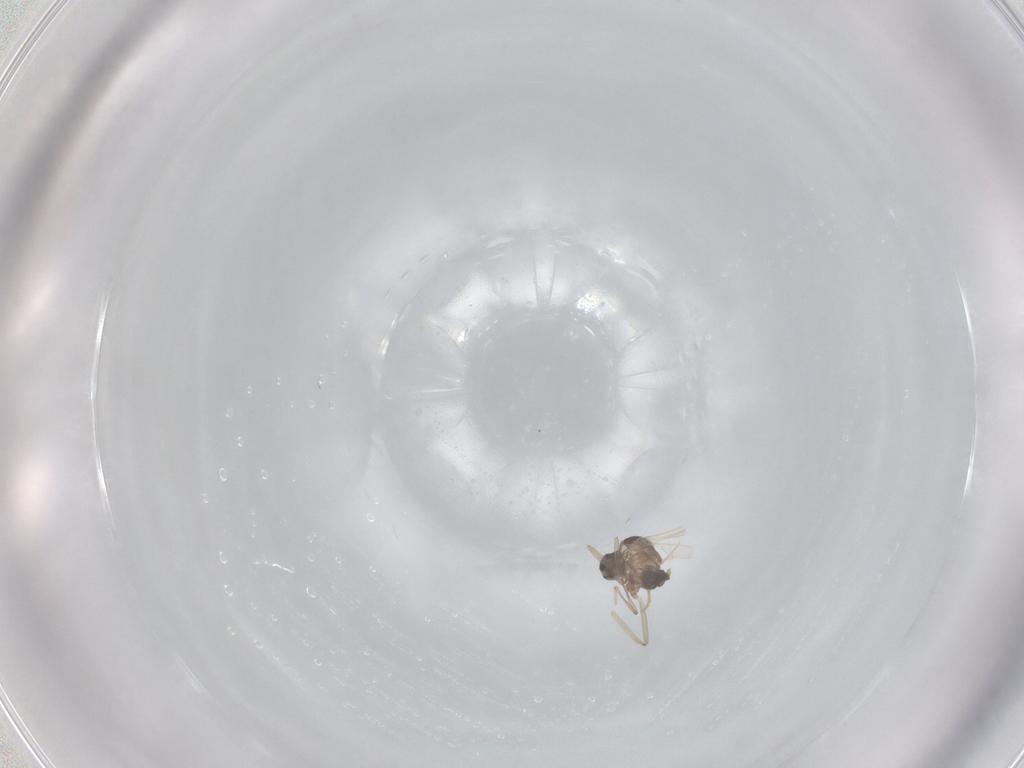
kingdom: Animalia
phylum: Arthropoda
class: Insecta
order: Diptera
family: Cecidomyiidae
